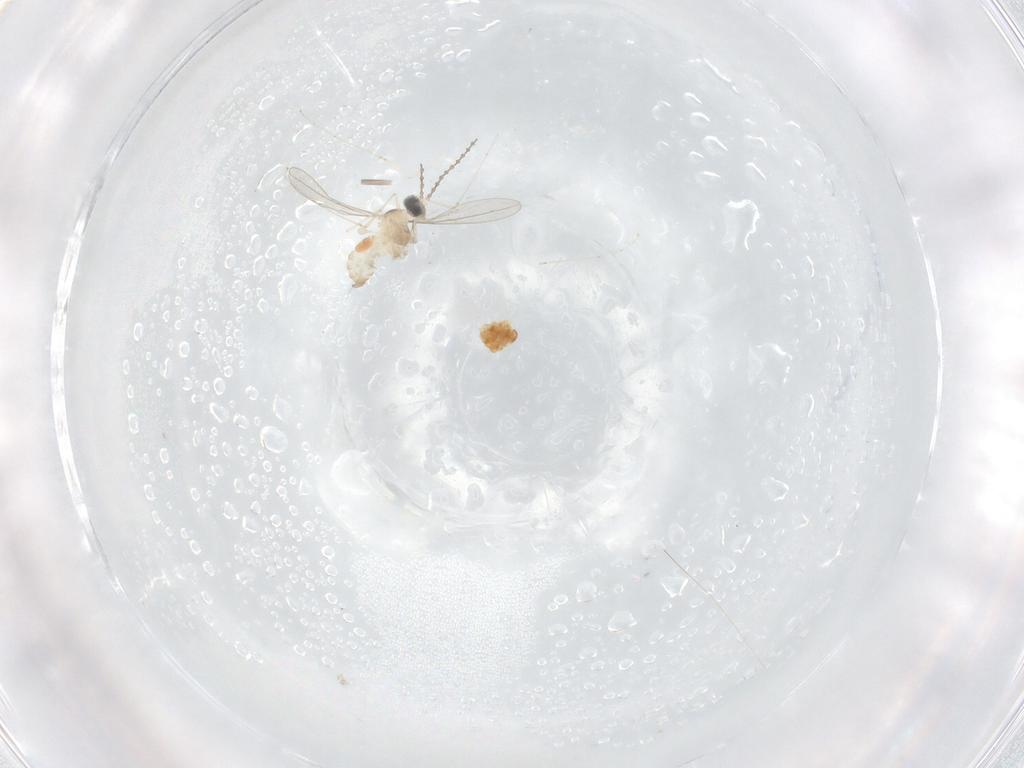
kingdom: Animalia
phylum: Arthropoda
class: Insecta
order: Diptera
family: Cecidomyiidae
